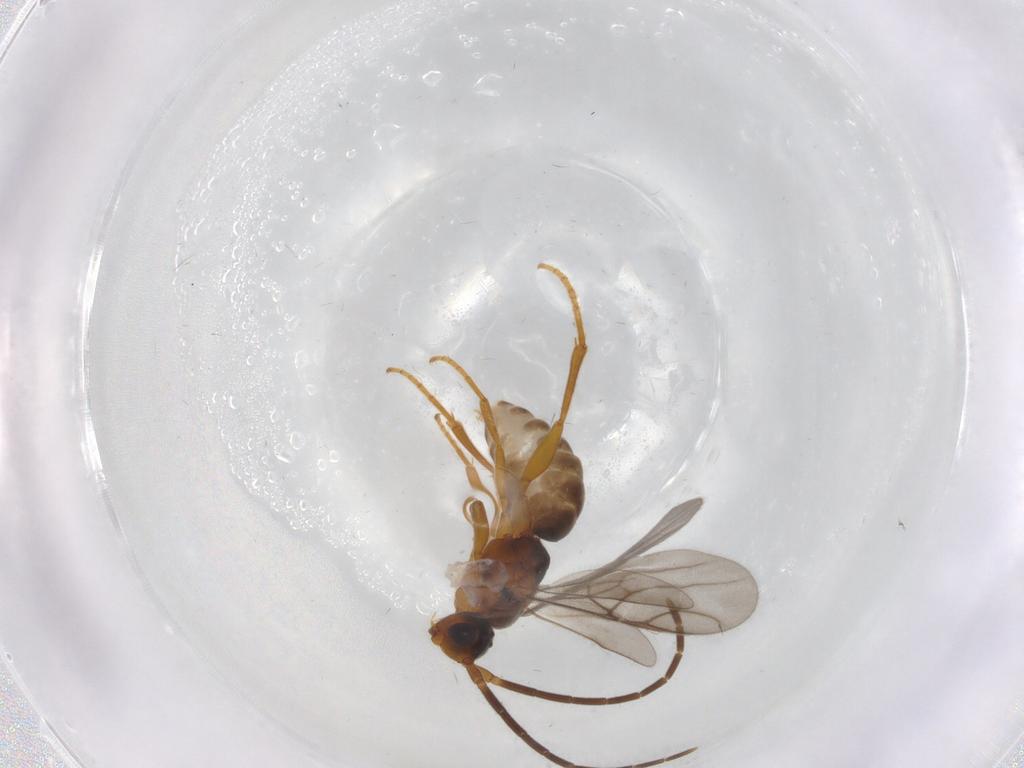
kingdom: Animalia
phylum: Arthropoda
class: Insecta
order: Hymenoptera
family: Embolemidae
